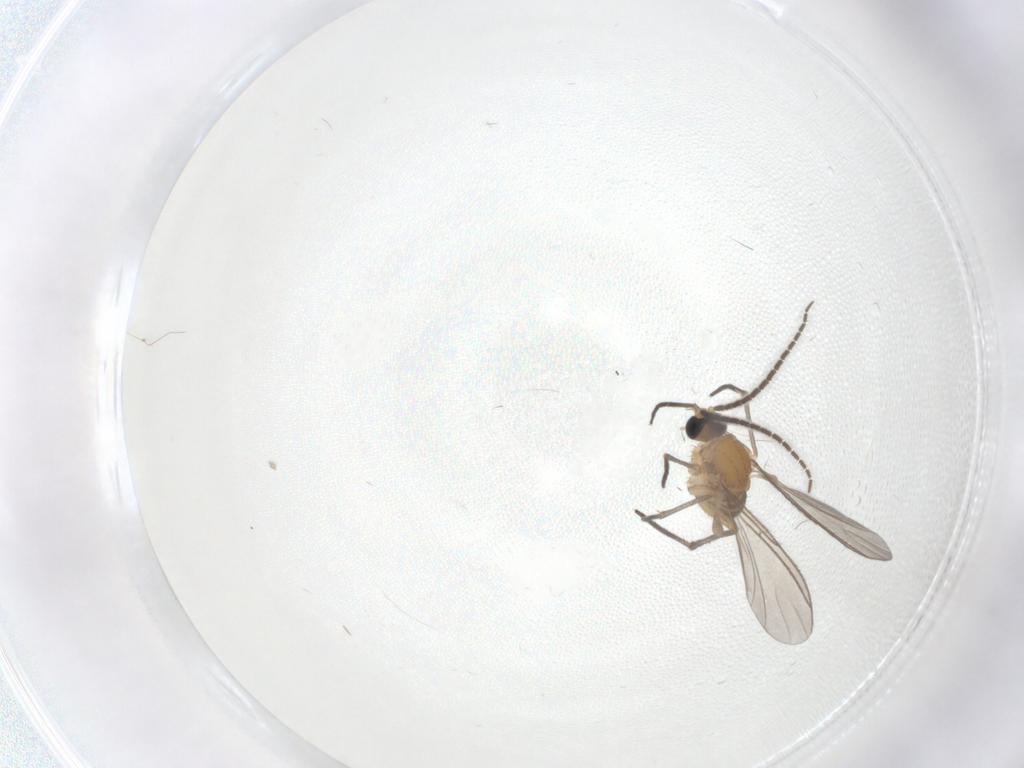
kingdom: Animalia
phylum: Arthropoda
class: Insecta
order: Diptera
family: Sciaridae
